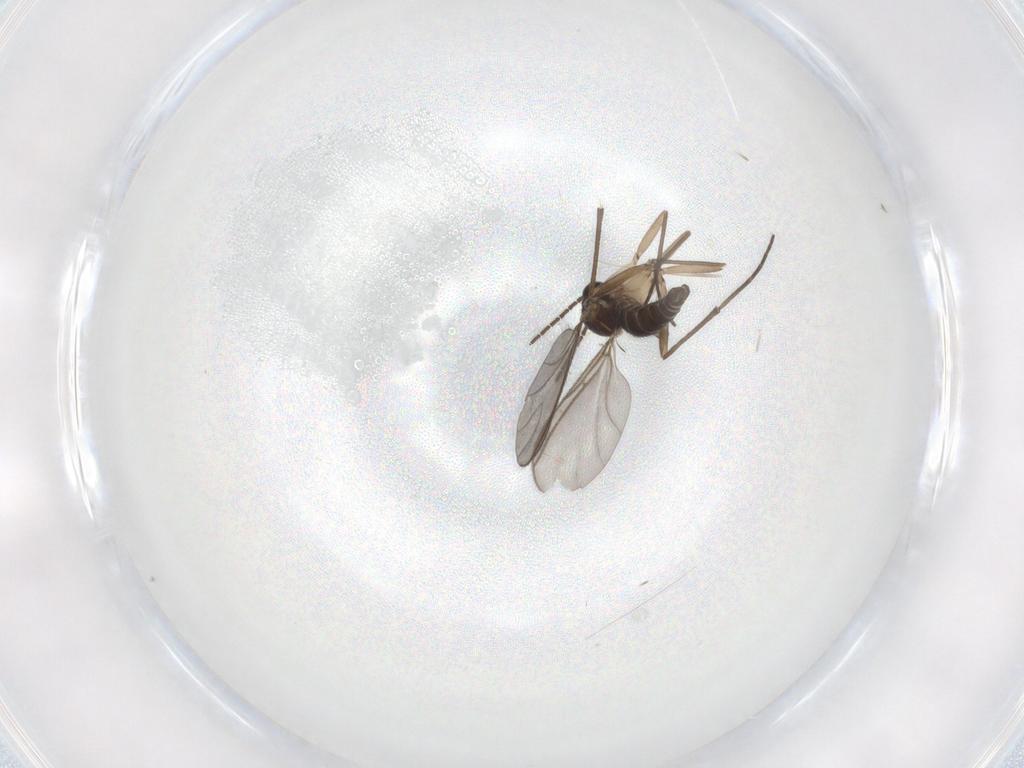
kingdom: Animalia
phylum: Arthropoda
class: Insecta
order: Diptera
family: Sciaridae
